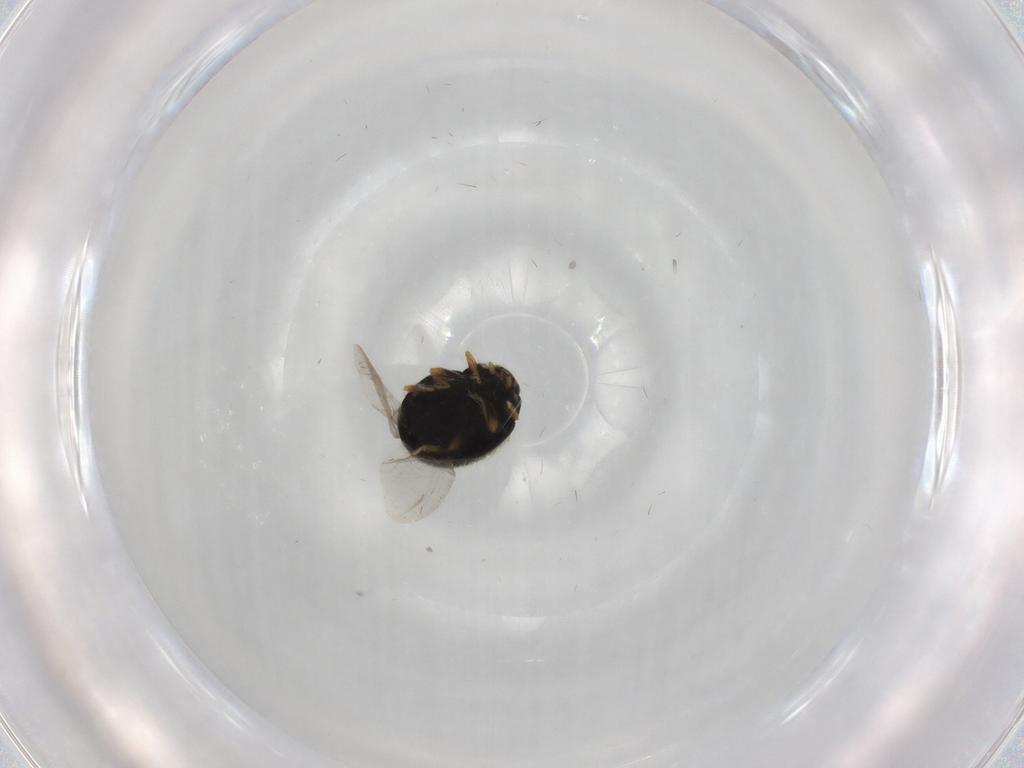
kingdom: Animalia
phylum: Arthropoda
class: Insecta
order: Coleoptera
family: Coccinellidae
